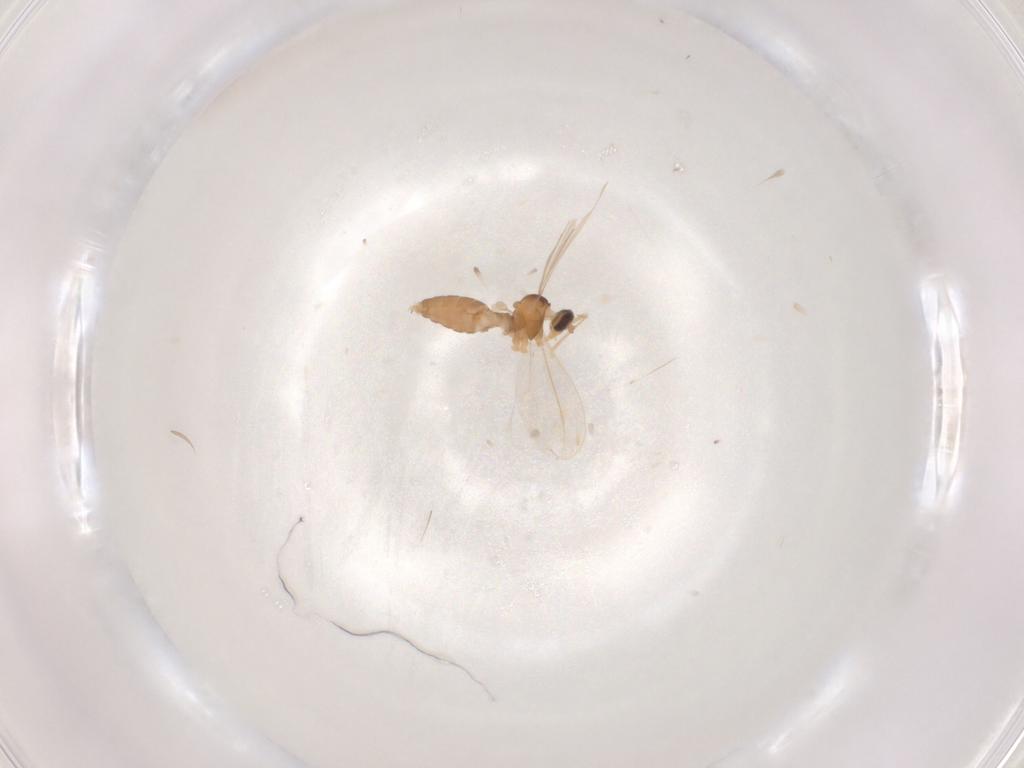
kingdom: Animalia
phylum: Arthropoda
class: Insecta
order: Diptera
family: Cecidomyiidae
